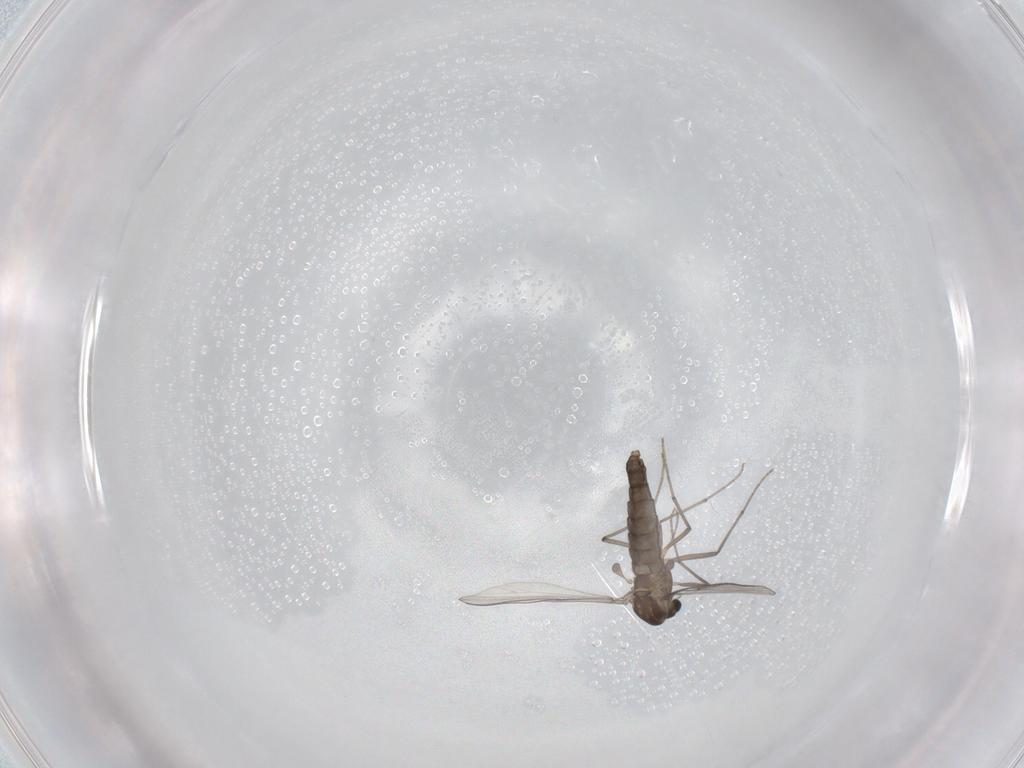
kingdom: Animalia
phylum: Arthropoda
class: Insecta
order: Diptera
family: Chironomidae
